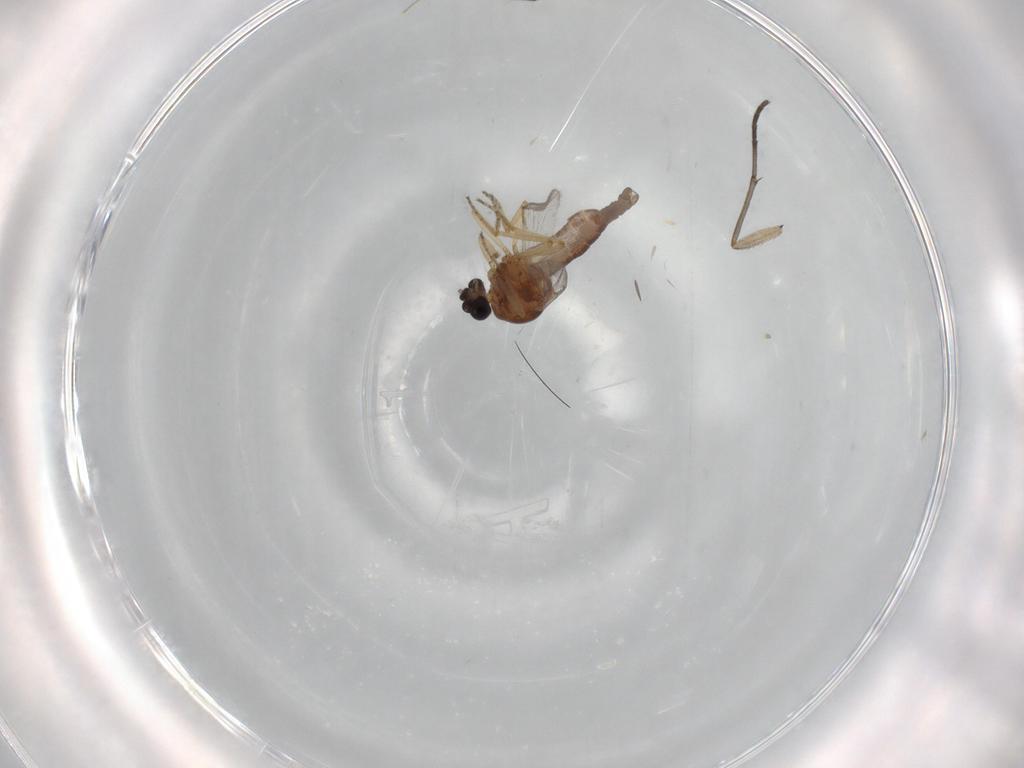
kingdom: Animalia
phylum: Arthropoda
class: Insecta
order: Diptera
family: Ceratopogonidae
